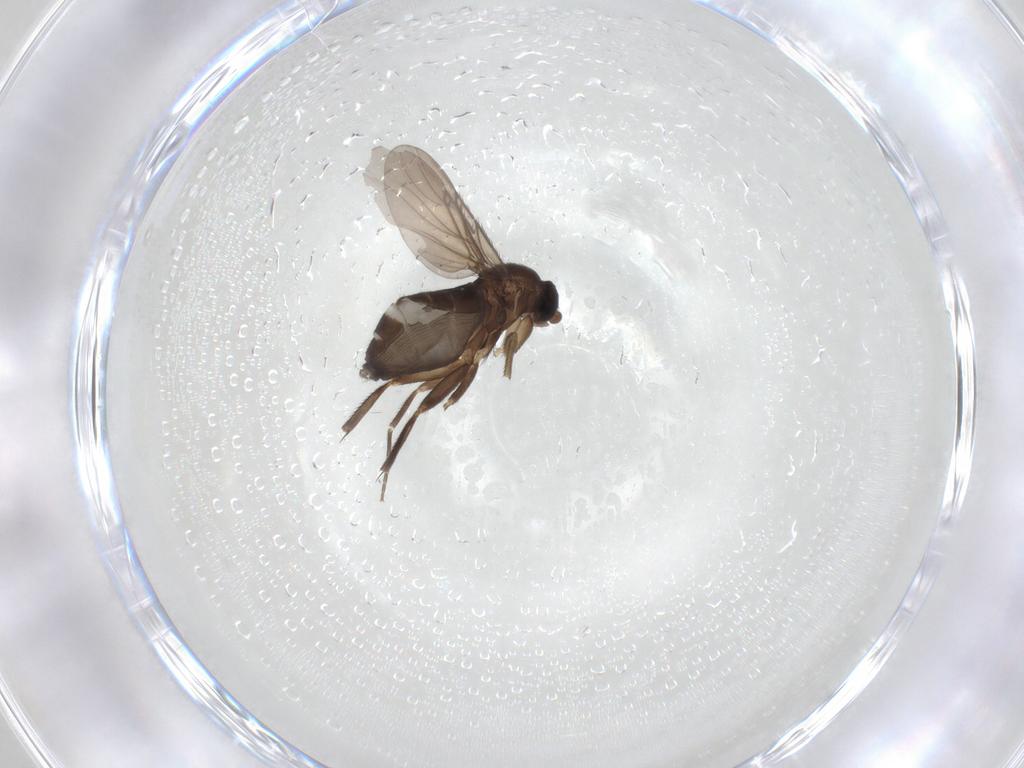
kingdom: Animalia
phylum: Arthropoda
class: Insecta
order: Diptera
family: Phoridae
